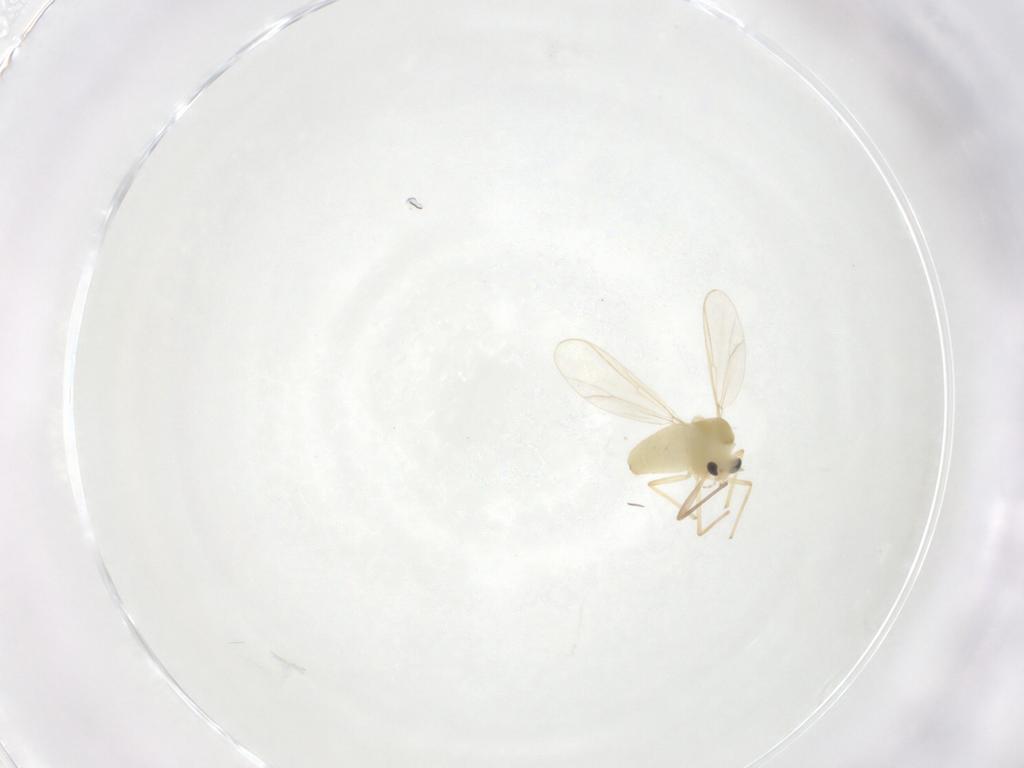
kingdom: Animalia
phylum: Arthropoda
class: Insecta
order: Diptera
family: Chironomidae
